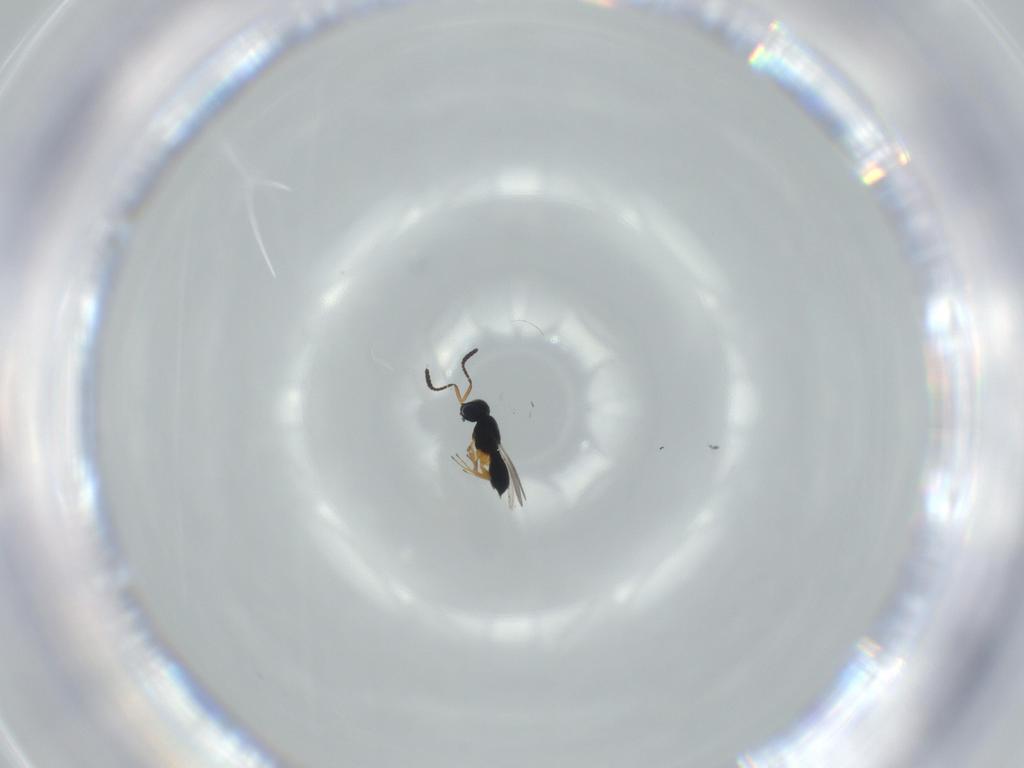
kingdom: Animalia
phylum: Arthropoda
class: Insecta
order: Hymenoptera
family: Scelionidae
